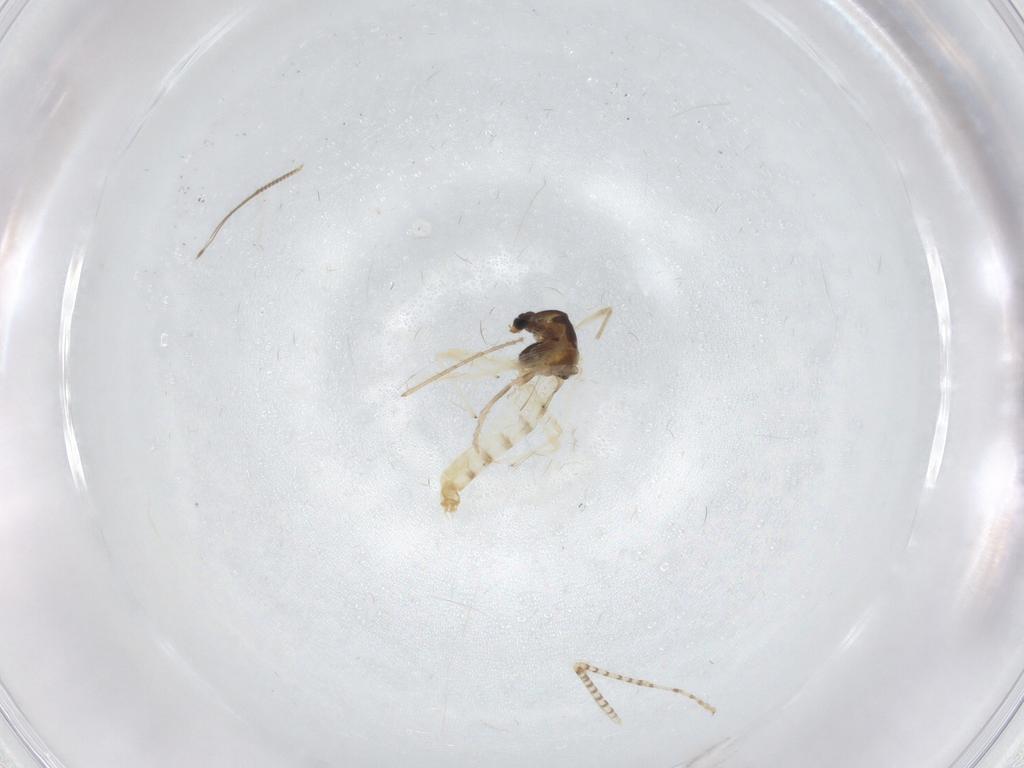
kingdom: Animalia
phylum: Arthropoda
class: Insecta
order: Diptera
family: Chironomidae
